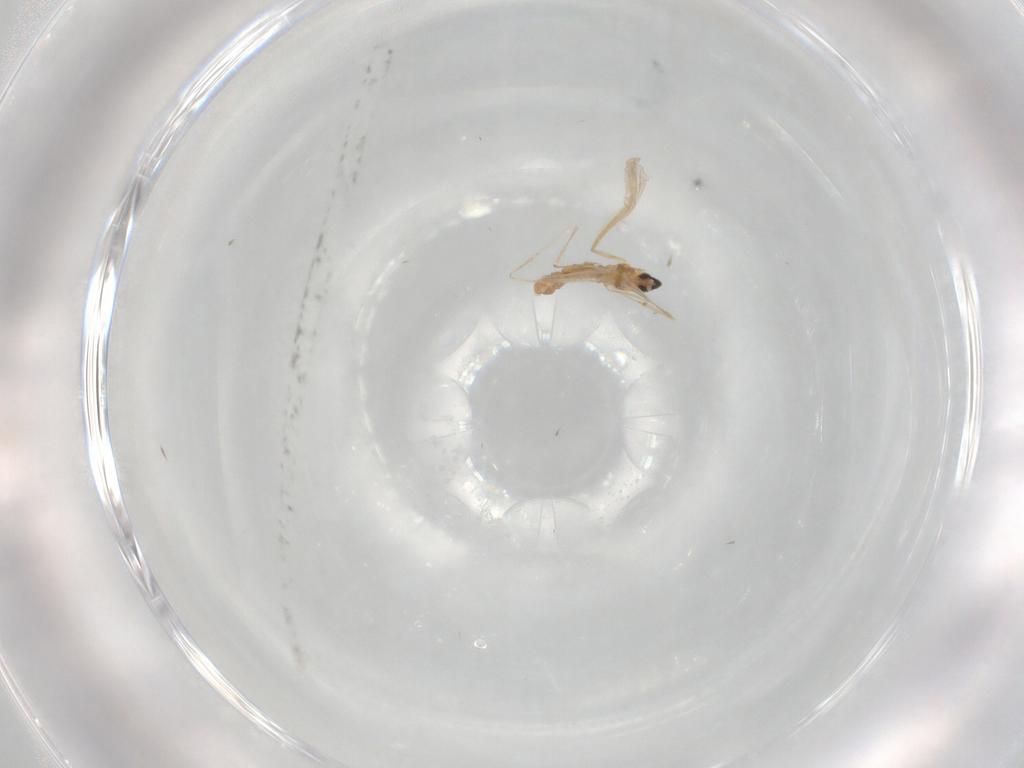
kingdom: Animalia
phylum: Arthropoda
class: Insecta
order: Diptera
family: Cecidomyiidae
